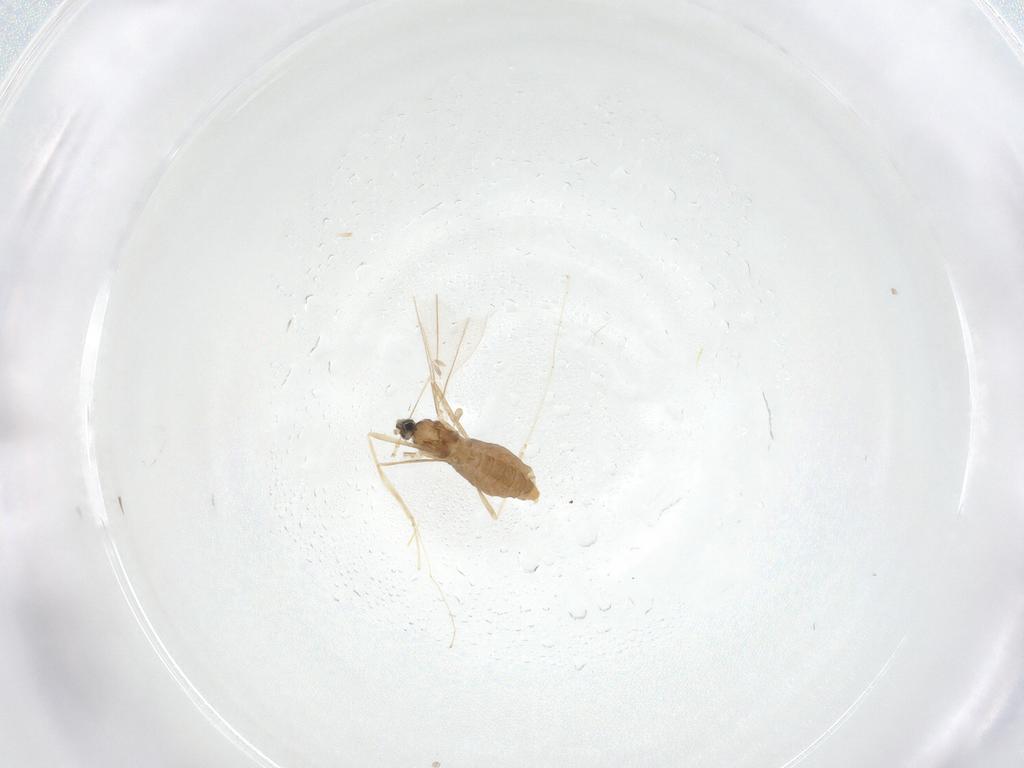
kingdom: Animalia
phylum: Arthropoda
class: Insecta
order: Diptera
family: Cecidomyiidae
